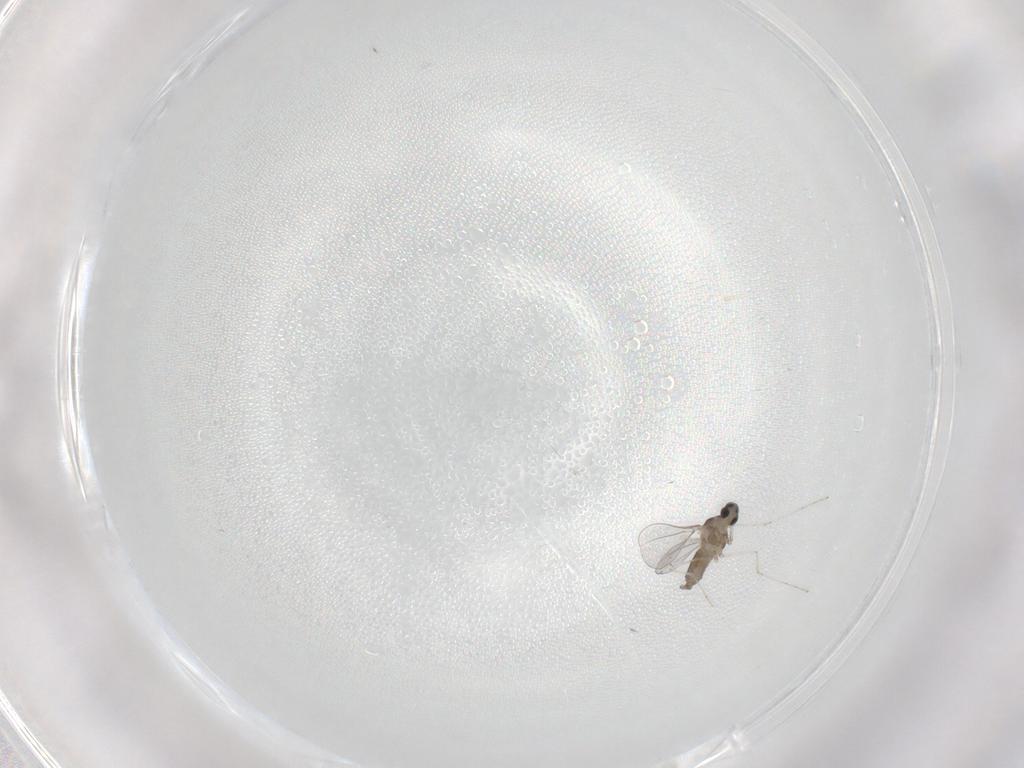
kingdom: Animalia
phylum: Arthropoda
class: Insecta
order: Diptera
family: Cecidomyiidae
